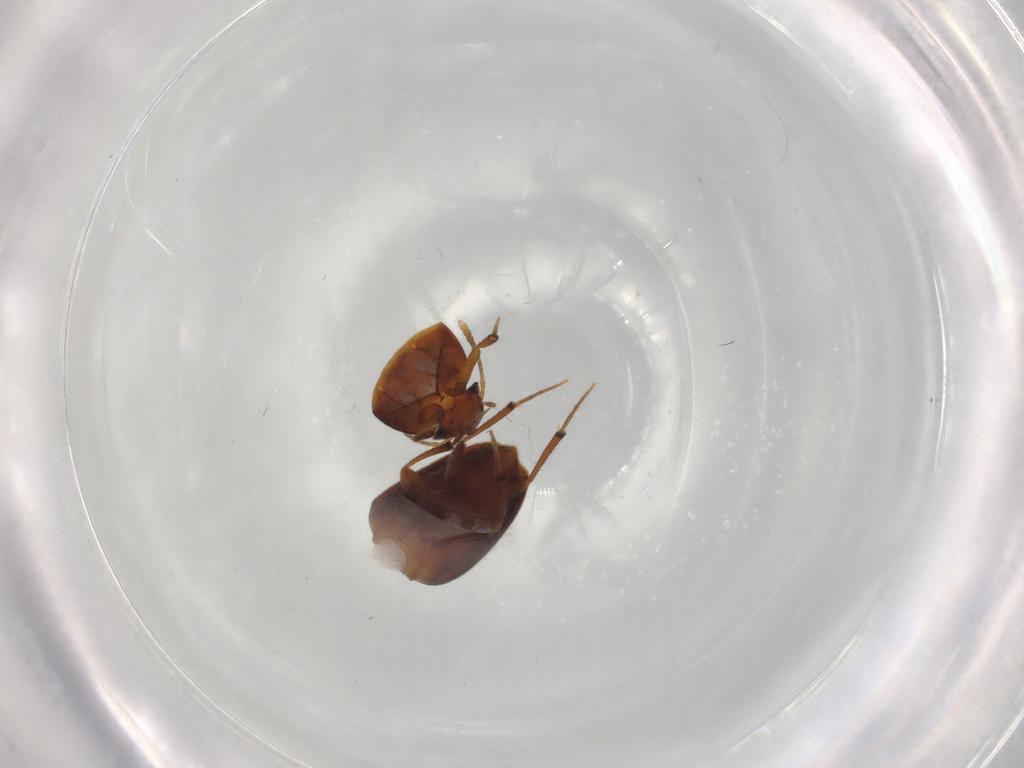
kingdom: Animalia
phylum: Arthropoda
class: Insecta
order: Coleoptera
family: Leiodidae
